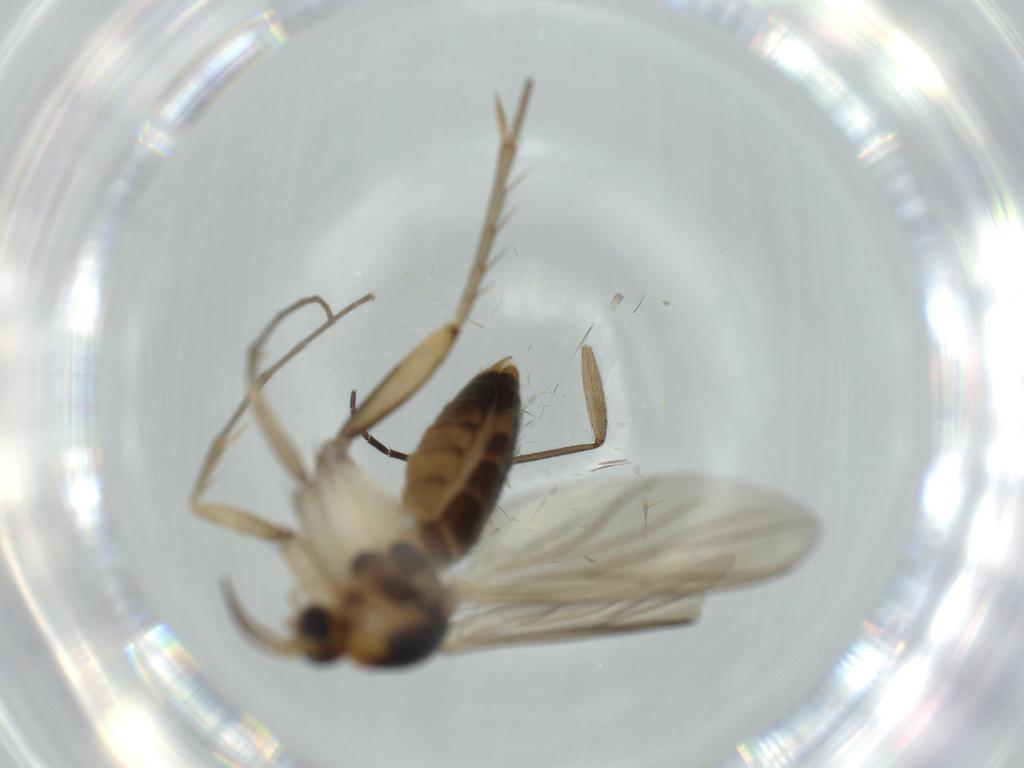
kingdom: Animalia
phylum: Arthropoda
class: Insecta
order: Diptera
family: Mycetophilidae
